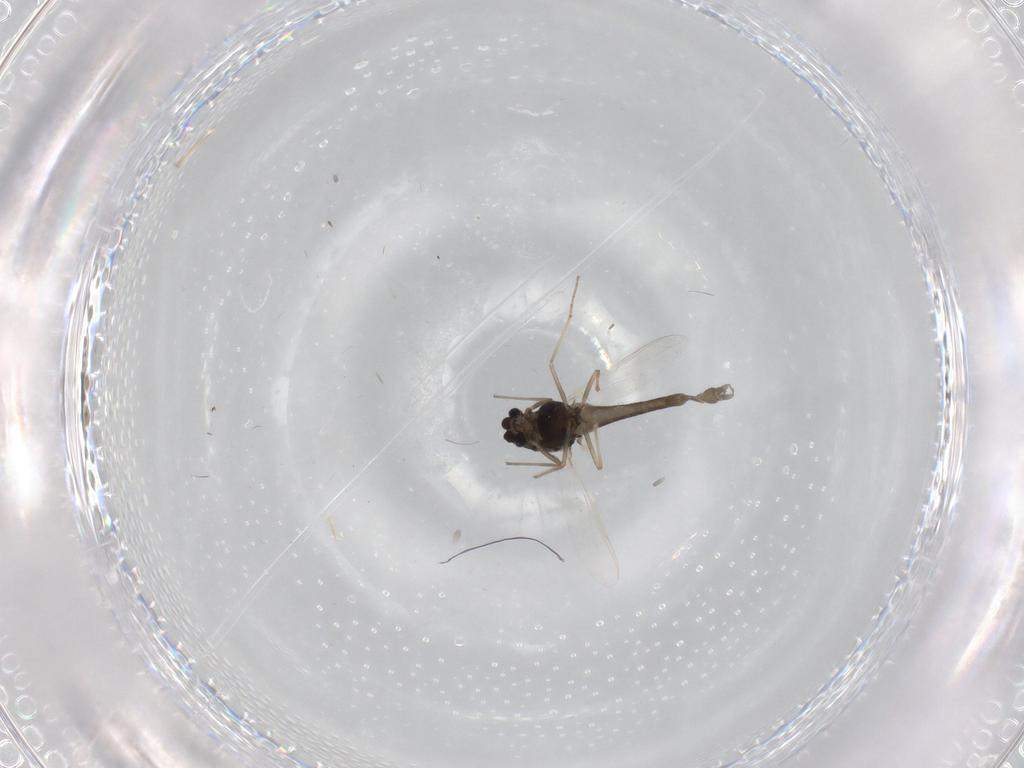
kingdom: Animalia
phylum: Arthropoda
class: Insecta
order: Diptera
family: Chironomidae
